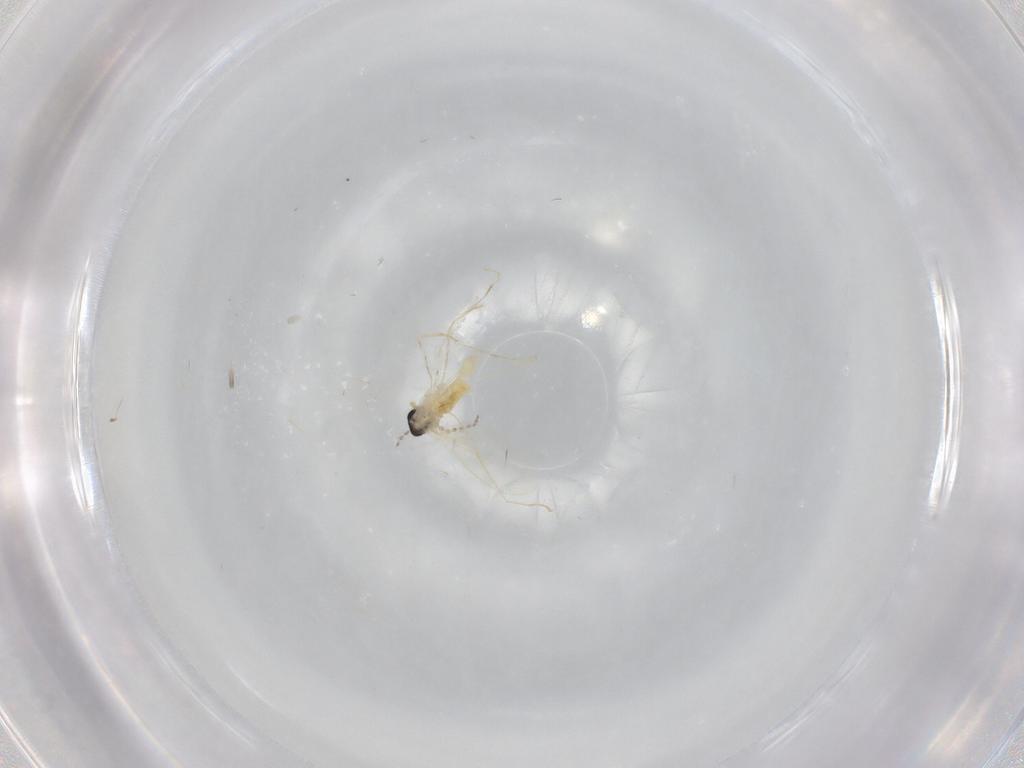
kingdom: Animalia
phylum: Arthropoda
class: Insecta
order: Diptera
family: Cecidomyiidae
